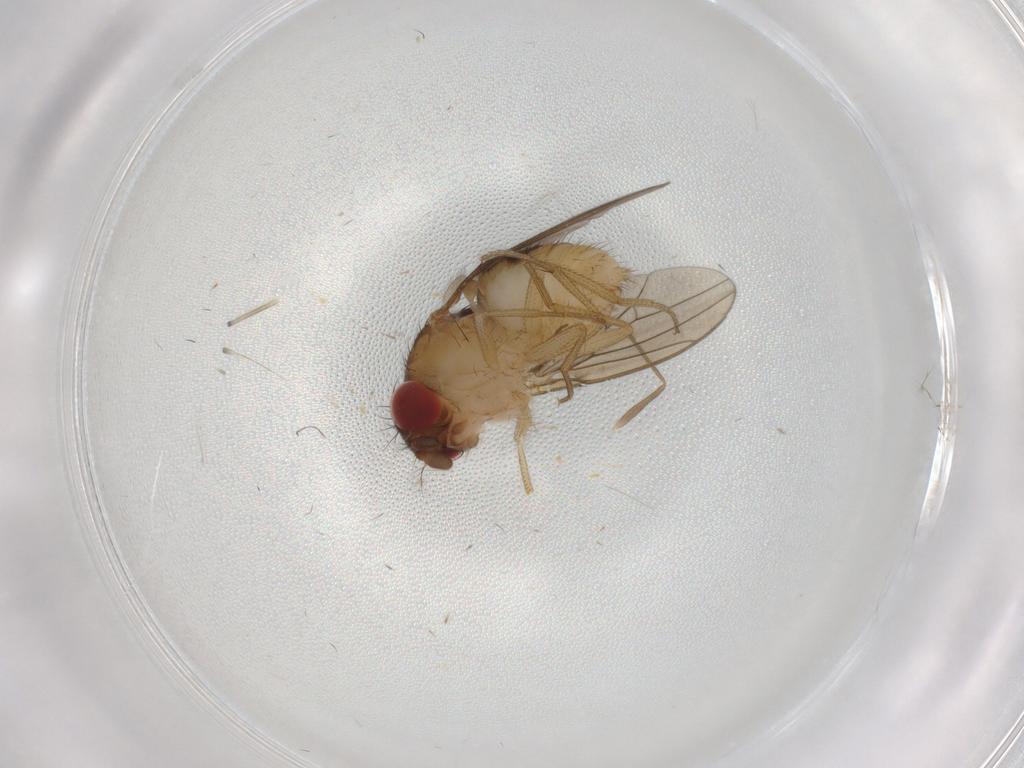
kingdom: Animalia
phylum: Arthropoda
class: Insecta
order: Diptera
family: Drosophilidae
